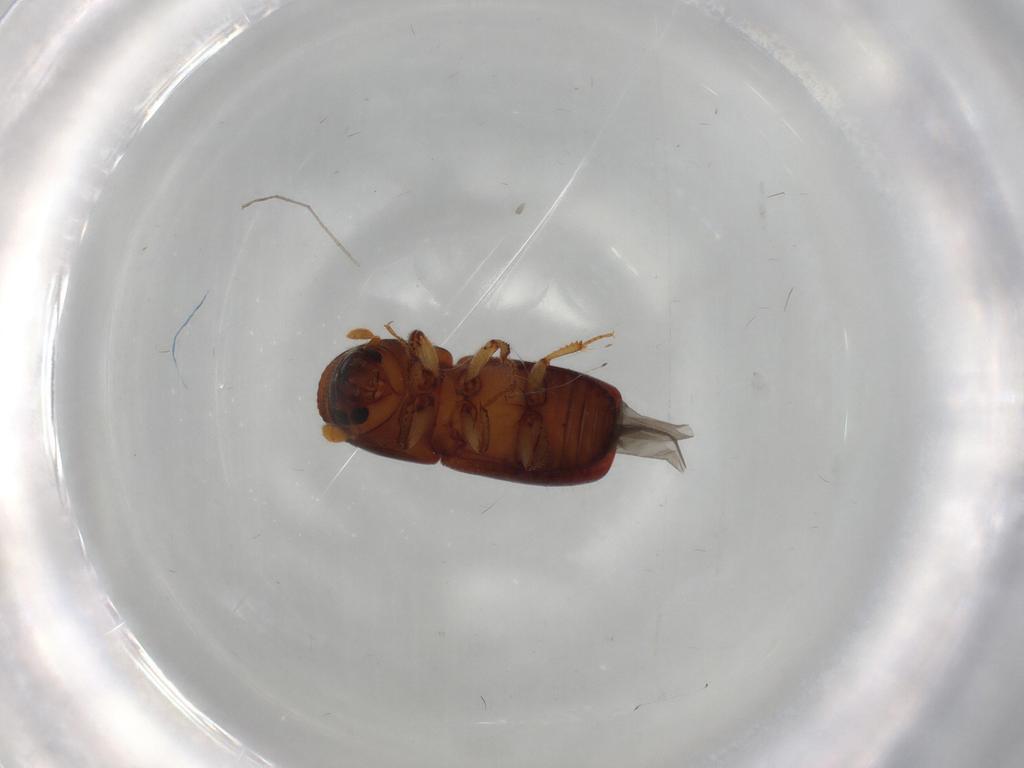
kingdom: Animalia
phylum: Arthropoda
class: Insecta
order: Coleoptera
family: Curculionidae
